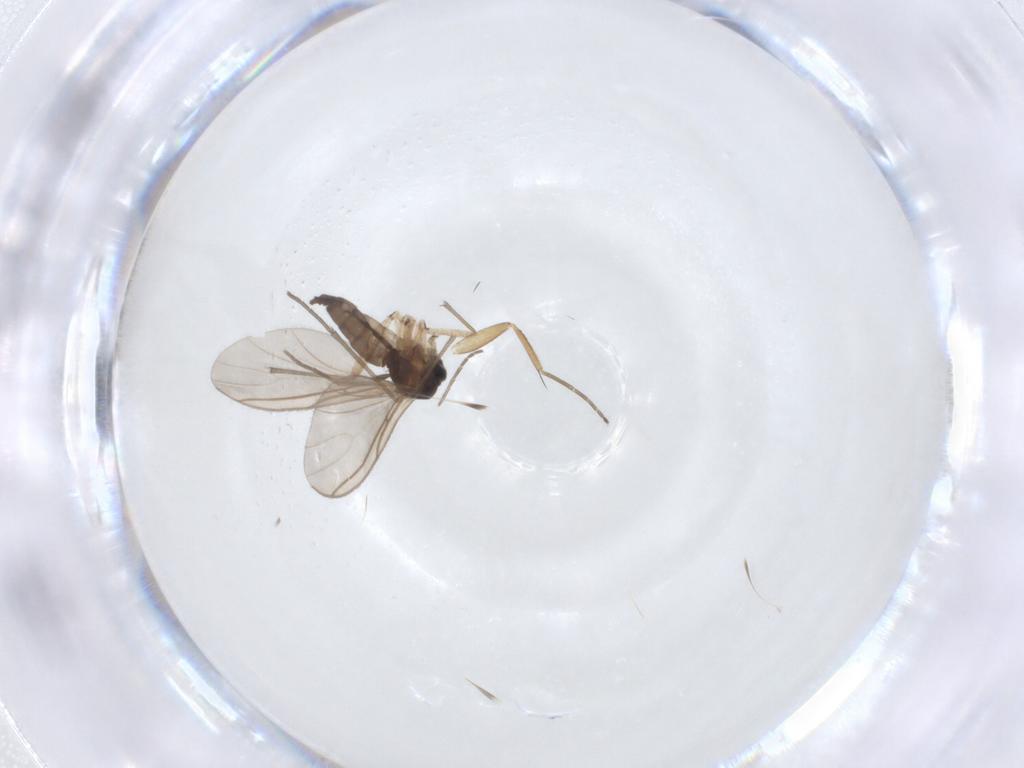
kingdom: Animalia
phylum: Arthropoda
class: Insecta
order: Diptera
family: Sciaridae
